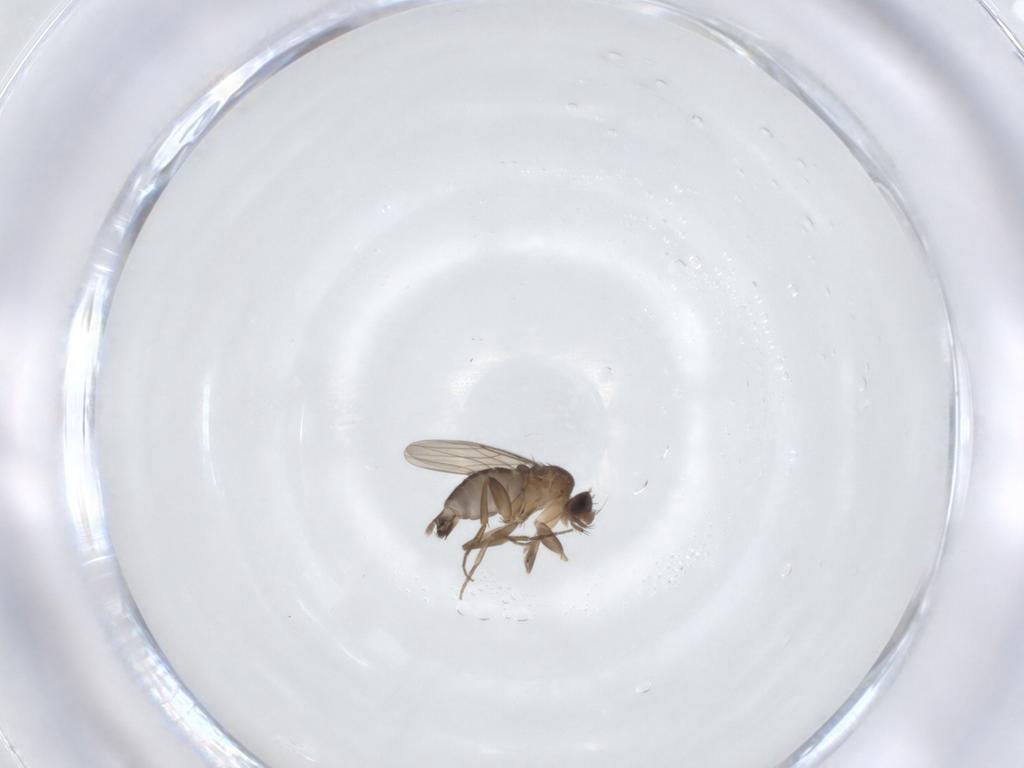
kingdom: Animalia
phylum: Arthropoda
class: Insecta
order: Diptera
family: Phoridae
